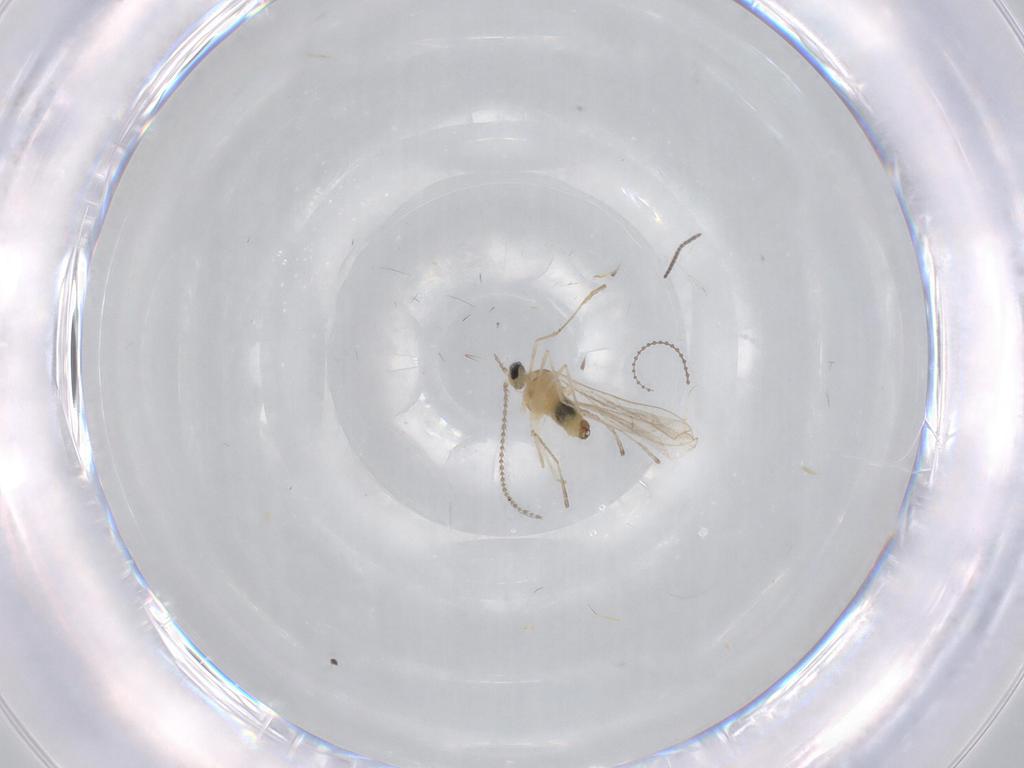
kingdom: Animalia
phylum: Arthropoda
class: Insecta
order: Diptera
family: Cecidomyiidae
